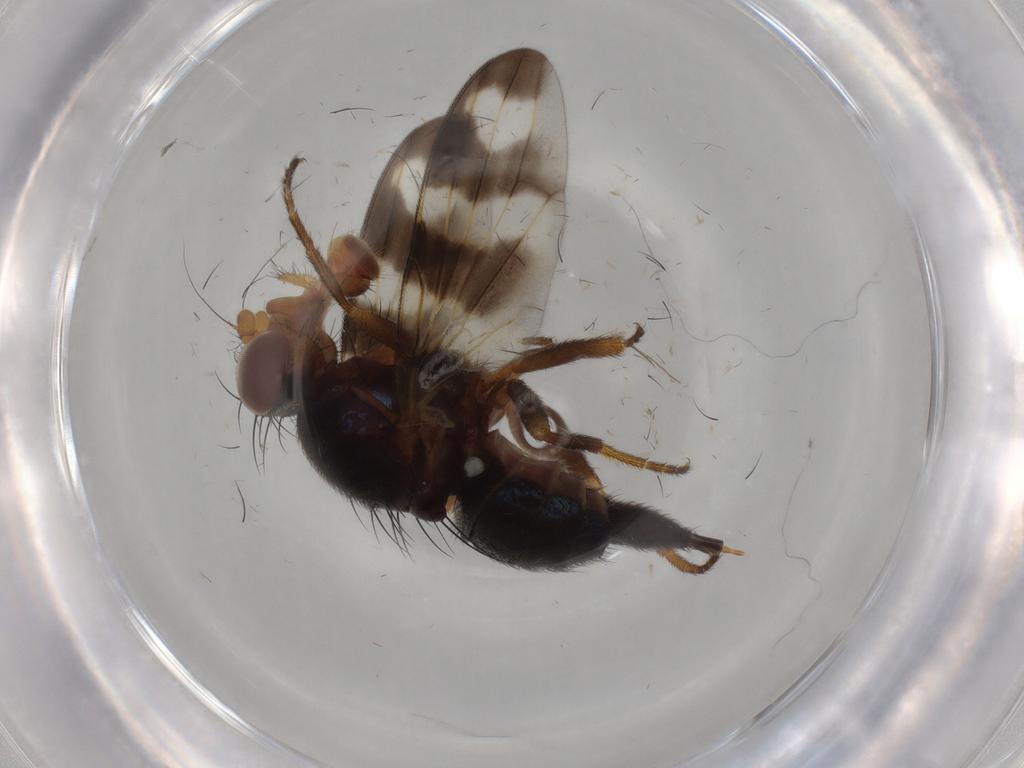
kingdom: Animalia
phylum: Arthropoda
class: Insecta
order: Diptera
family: Ceratopogonidae
